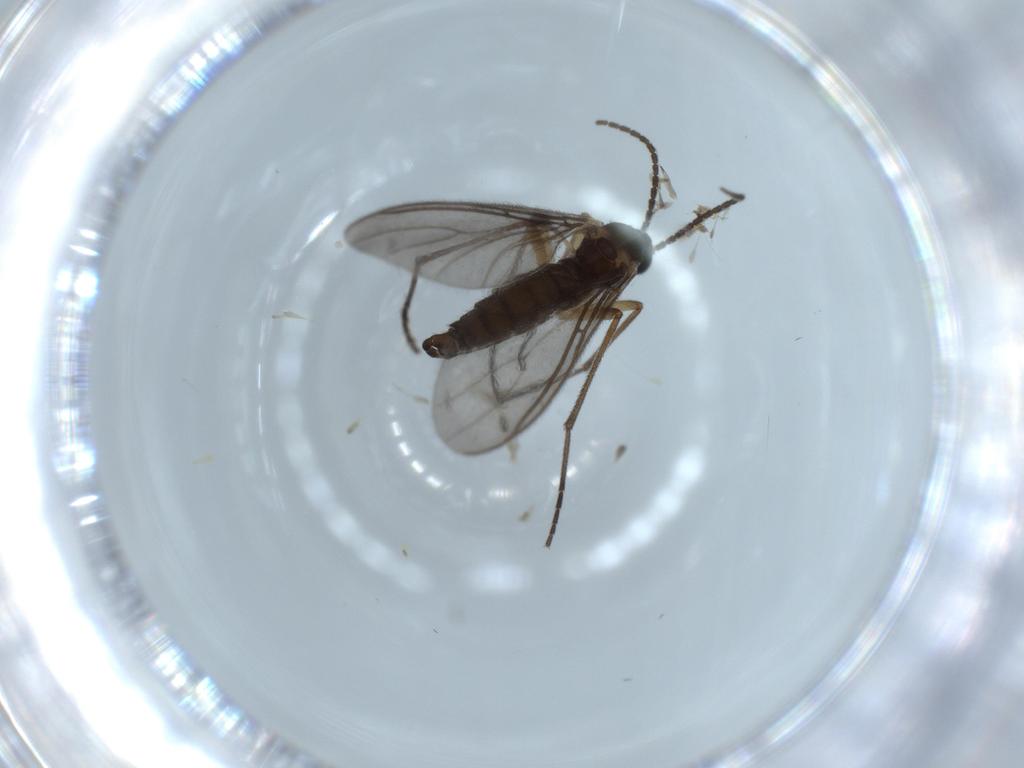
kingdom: Animalia
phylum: Arthropoda
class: Insecta
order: Diptera
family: Sciaridae
